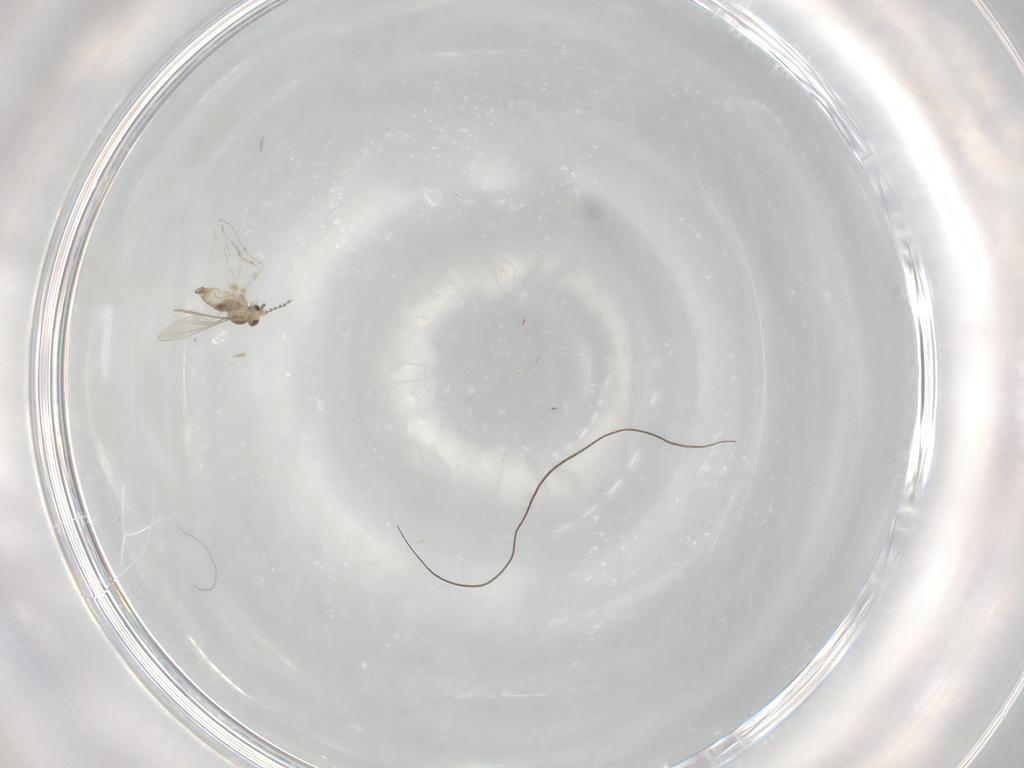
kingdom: Animalia
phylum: Arthropoda
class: Insecta
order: Diptera
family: Cecidomyiidae
